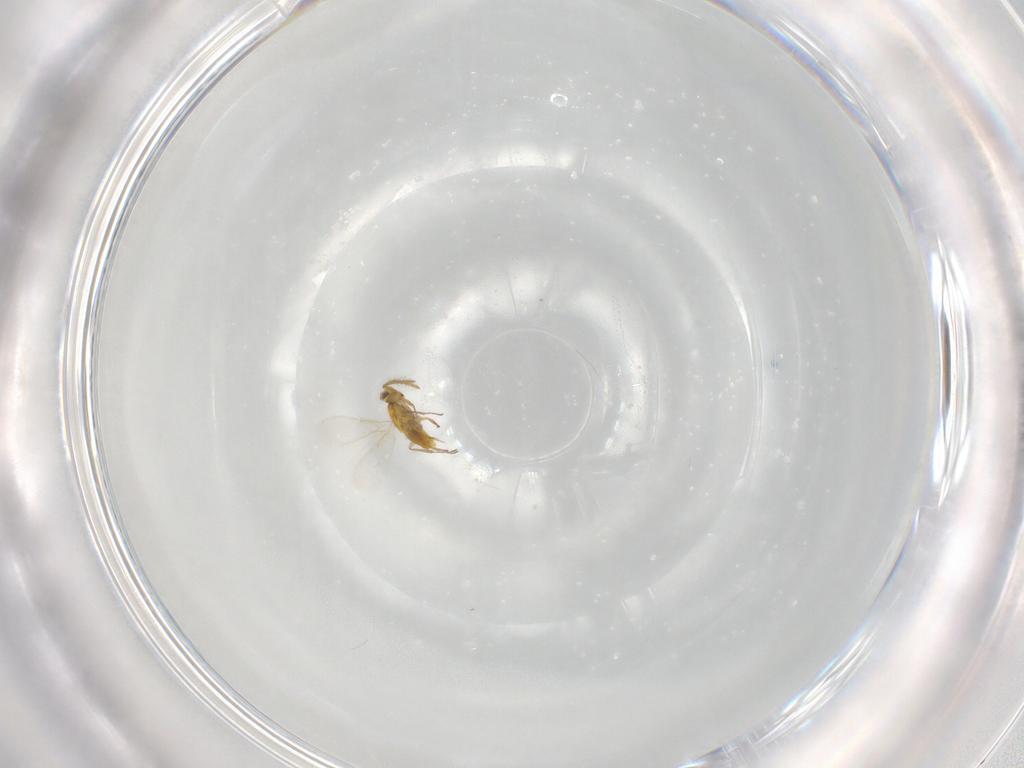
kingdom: Animalia
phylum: Arthropoda
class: Insecta
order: Hymenoptera
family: Aphelinidae
